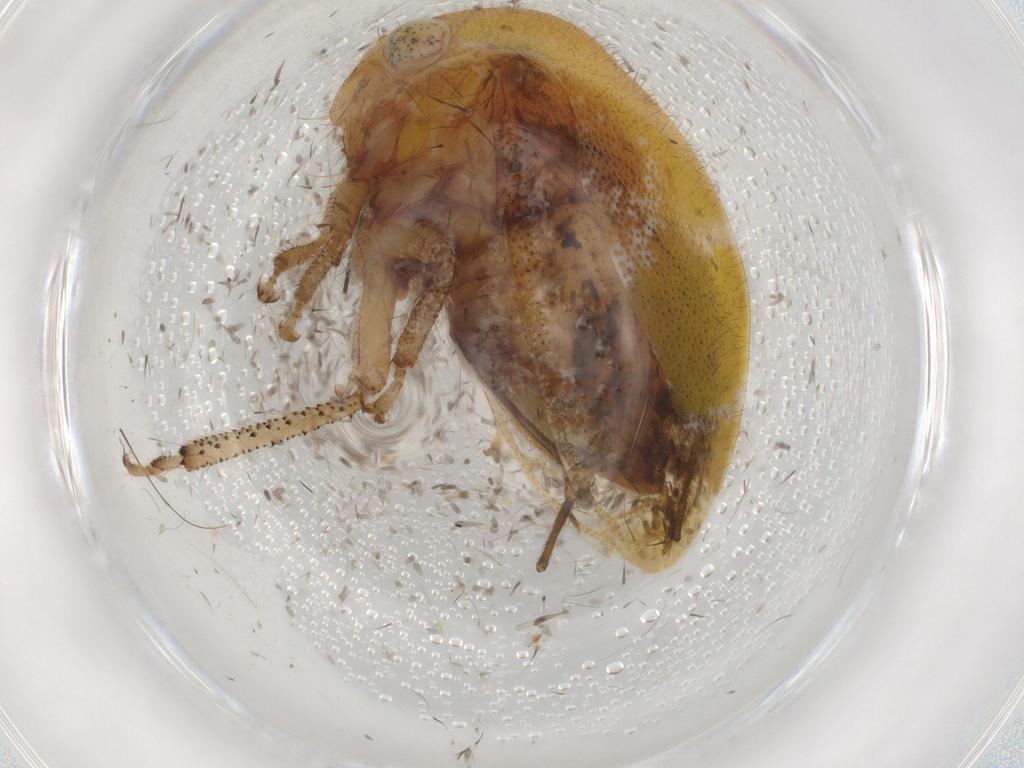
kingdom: Animalia
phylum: Arthropoda
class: Insecta
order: Hemiptera
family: Membracidae
